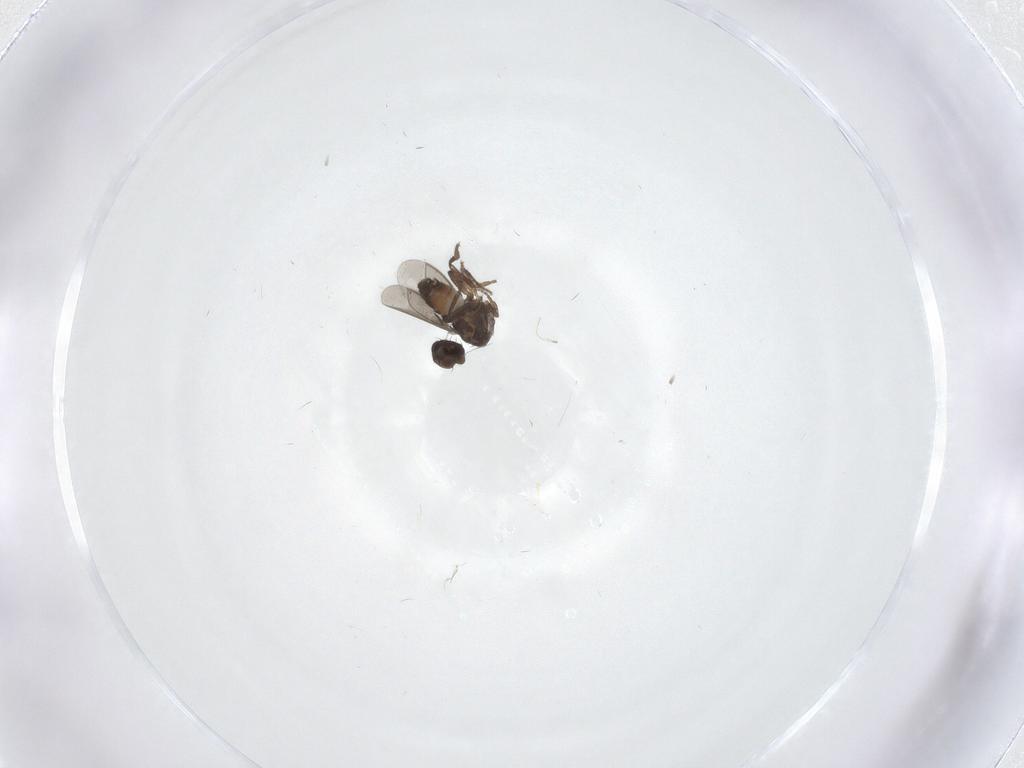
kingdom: Animalia
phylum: Arthropoda
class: Insecta
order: Diptera
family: Sphaeroceridae
